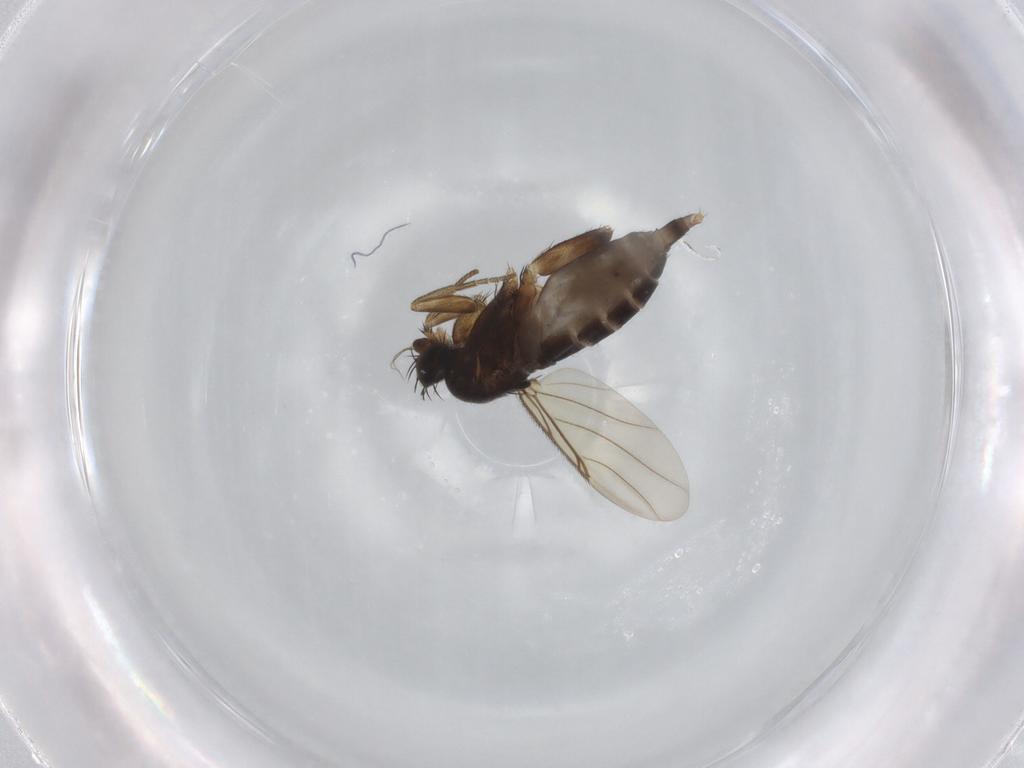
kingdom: Animalia
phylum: Arthropoda
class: Insecta
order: Diptera
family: Phoridae
